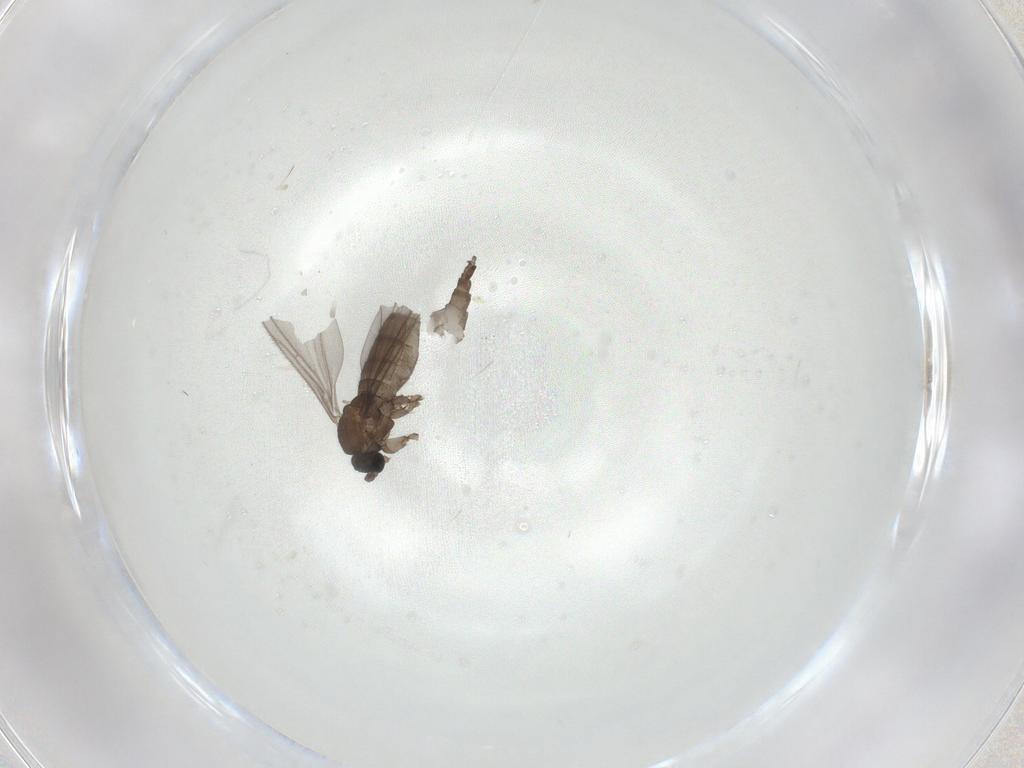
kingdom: Animalia
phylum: Arthropoda
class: Insecta
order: Diptera
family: Sciaridae
